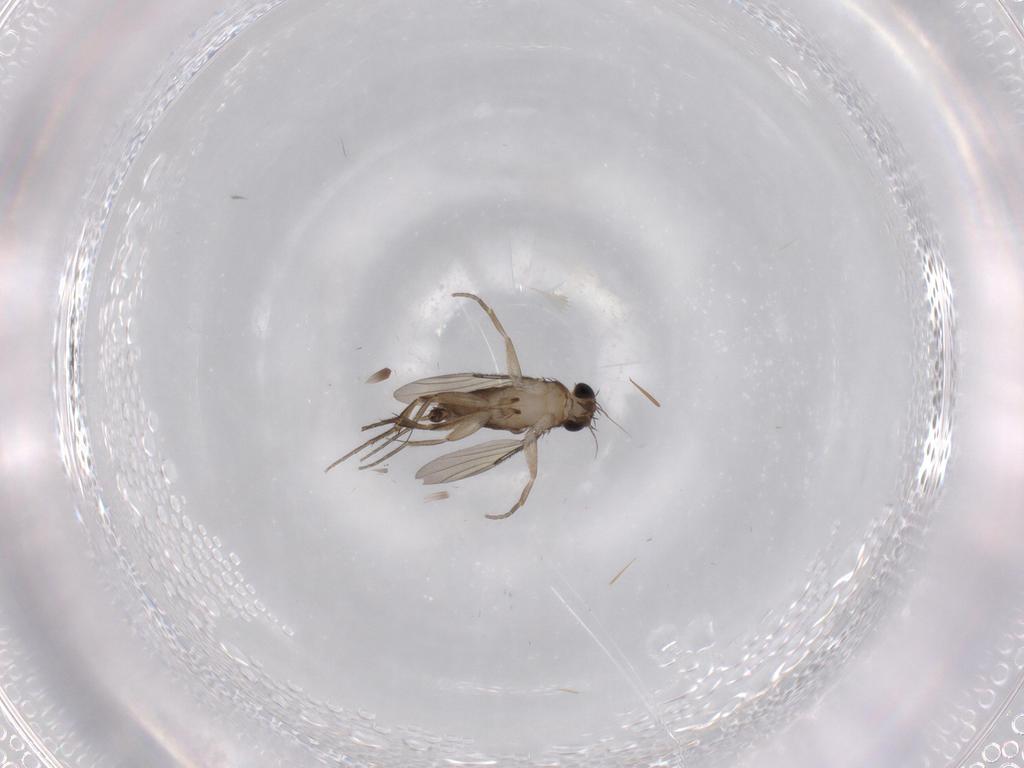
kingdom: Animalia
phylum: Arthropoda
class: Insecta
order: Diptera
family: Phoridae
